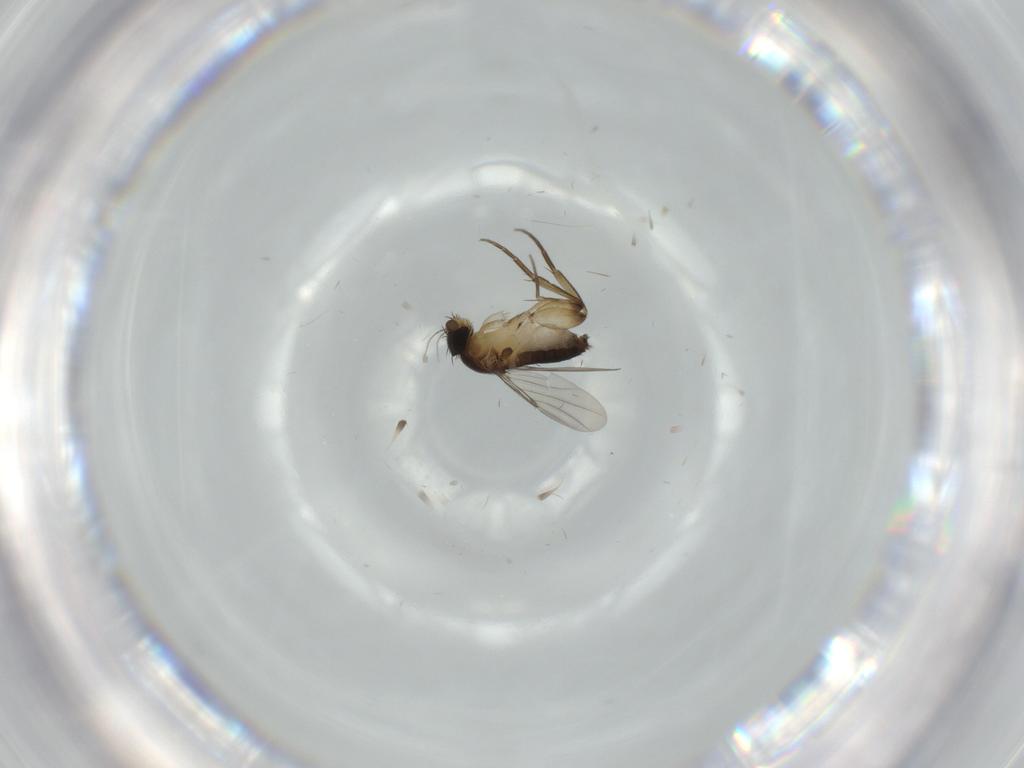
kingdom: Animalia
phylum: Arthropoda
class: Insecta
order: Diptera
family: Phoridae
